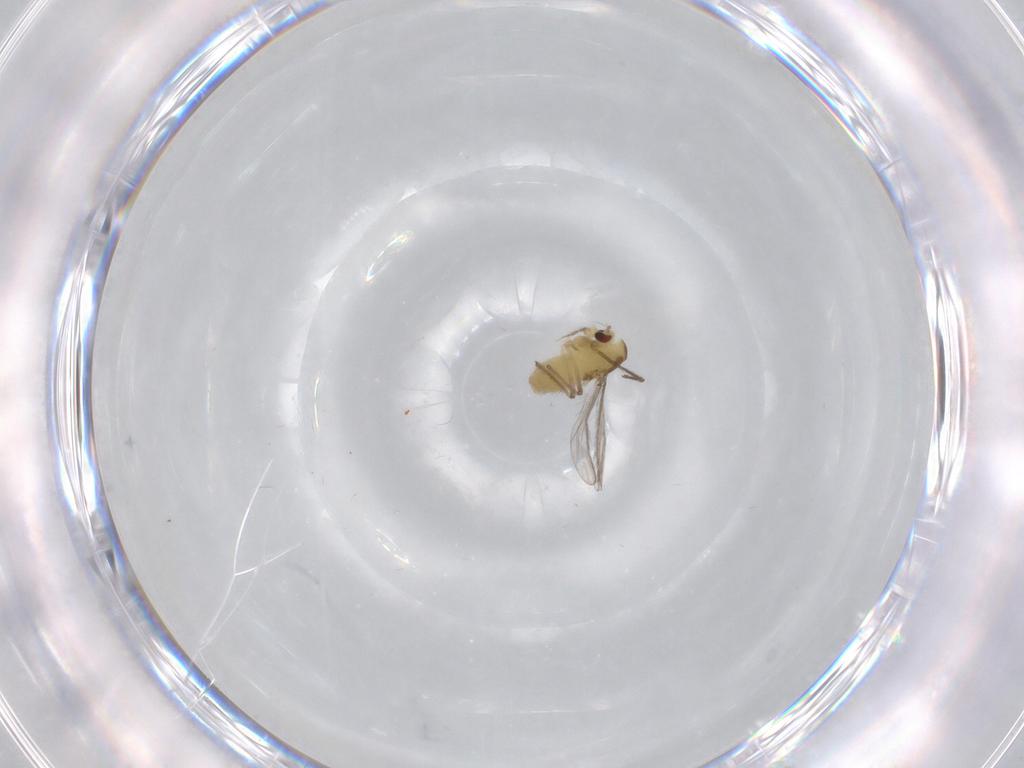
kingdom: Animalia
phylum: Arthropoda
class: Insecta
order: Diptera
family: Chironomidae
